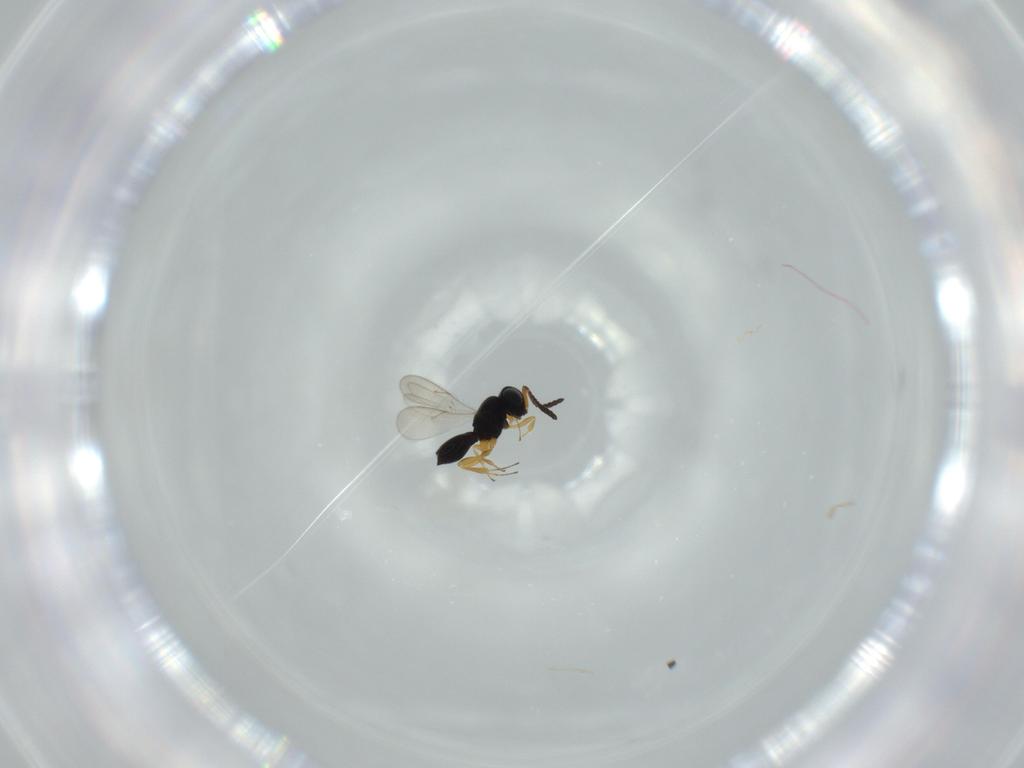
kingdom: Animalia
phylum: Arthropoda
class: Insecta
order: Hymenoptera
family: Scelionidae
